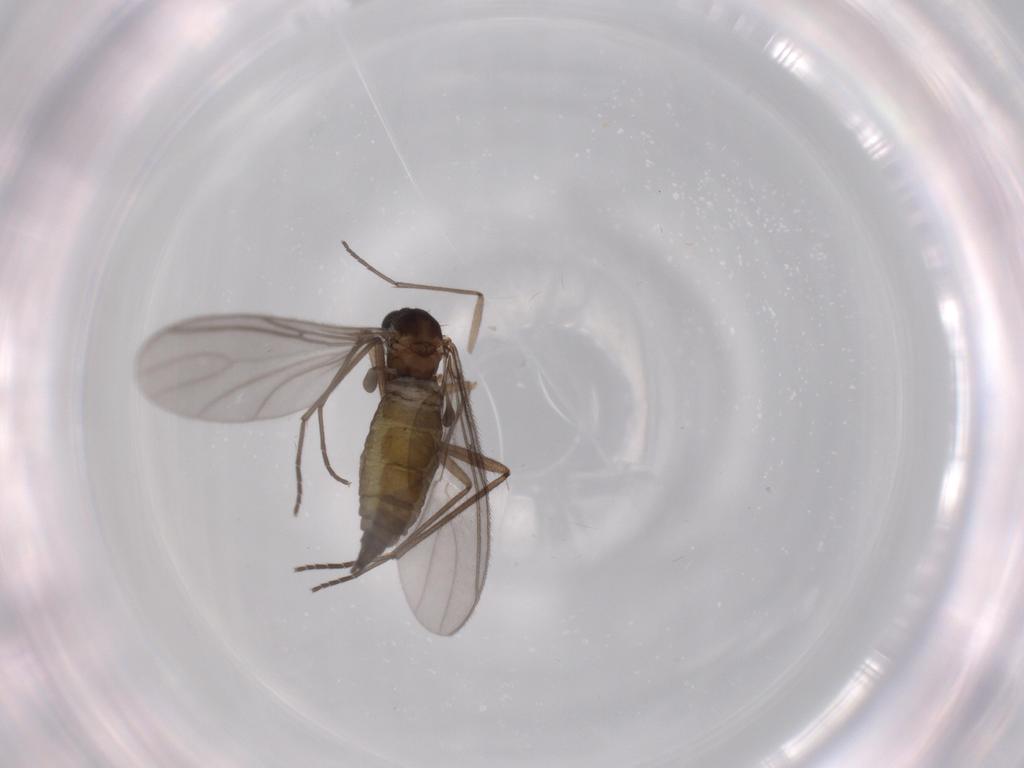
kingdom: Animalia
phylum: Arthropoda
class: Insecta
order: Diptera
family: Sciaridae
